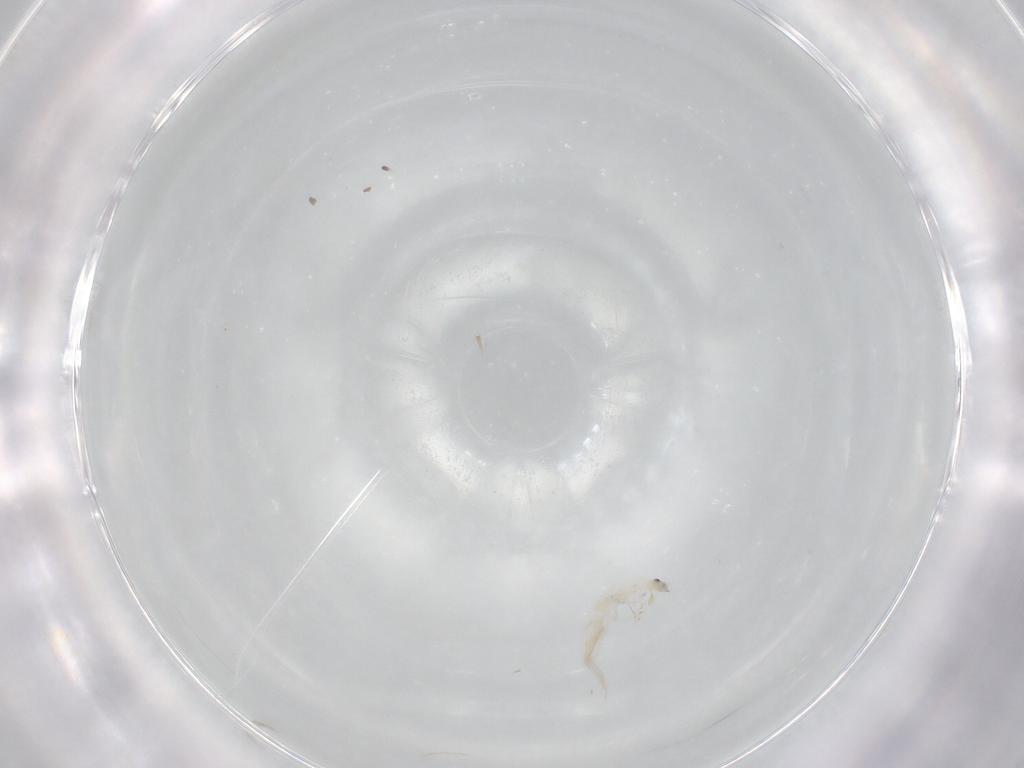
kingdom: Animalia
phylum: Arthropoda
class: Collembola
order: Entomobryomorpha
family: Entomobryidae
